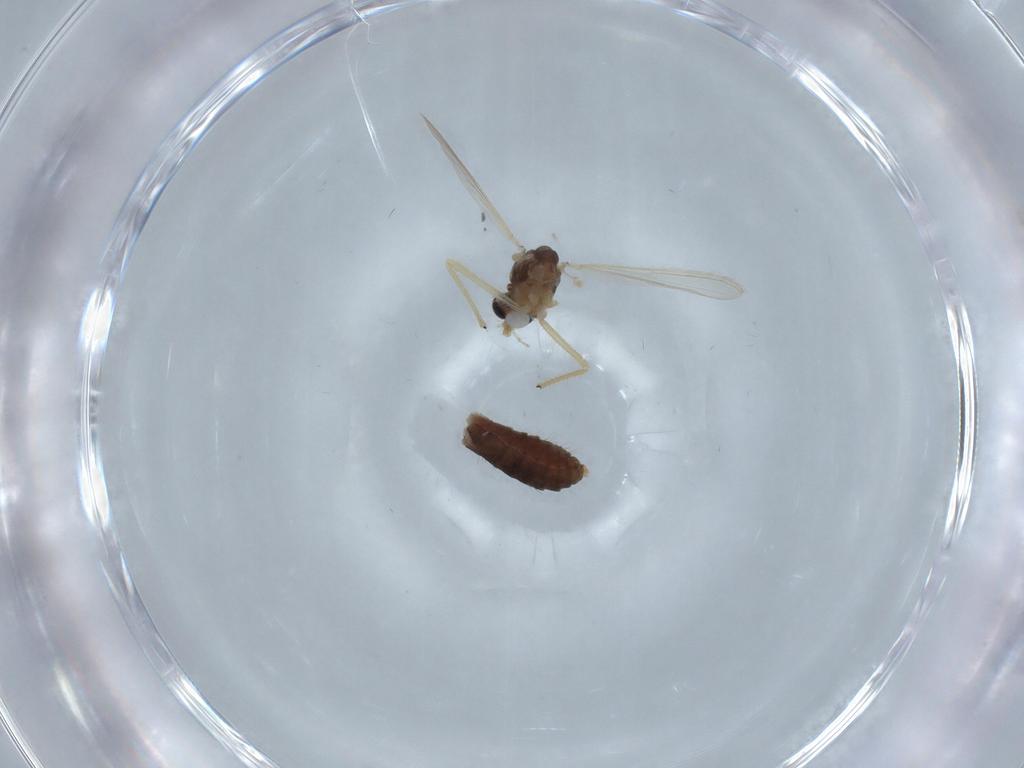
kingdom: Animalia
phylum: Arthropoda
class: Insecta
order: Diptera
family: Chironomidae
